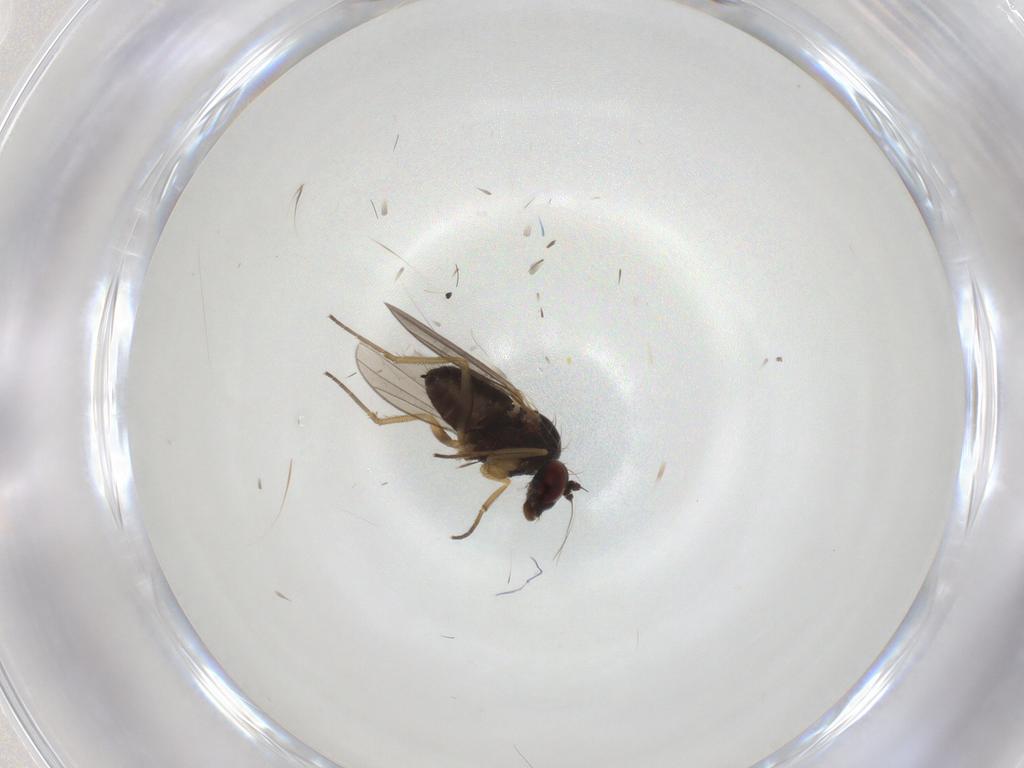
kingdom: Animalia
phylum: Arthropoda
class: Insecta
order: Diptera
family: Dolichopodidae
